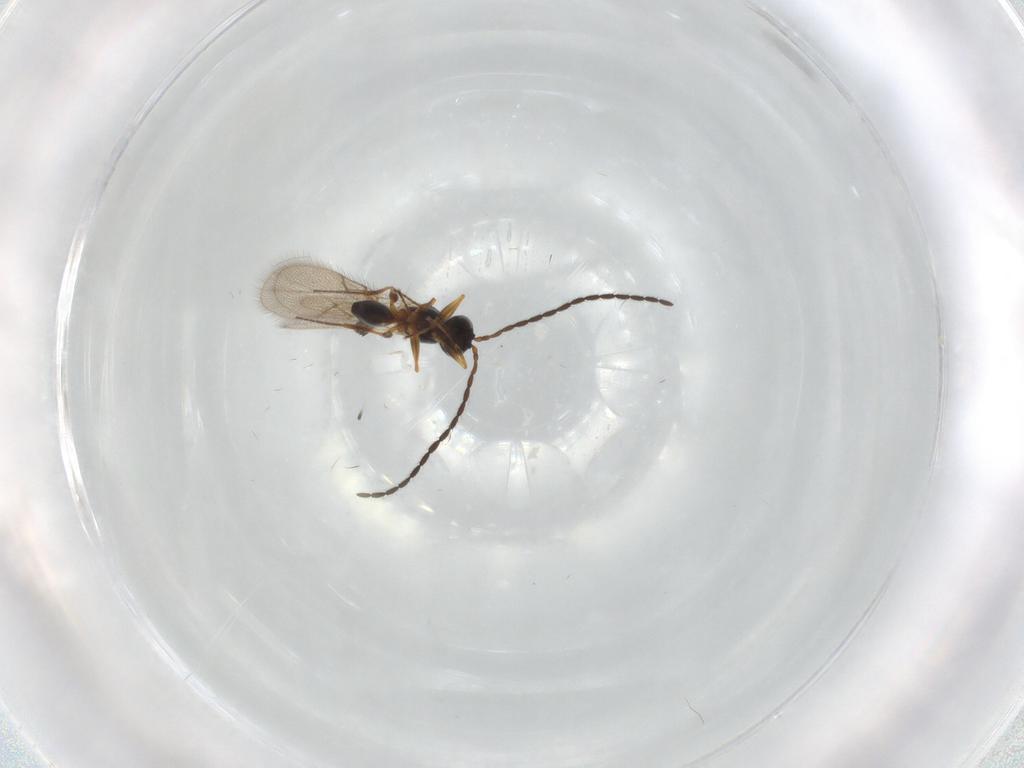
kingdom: Animalia
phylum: Arthropoda
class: Insecta
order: Hymenoptera
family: Figitidae
